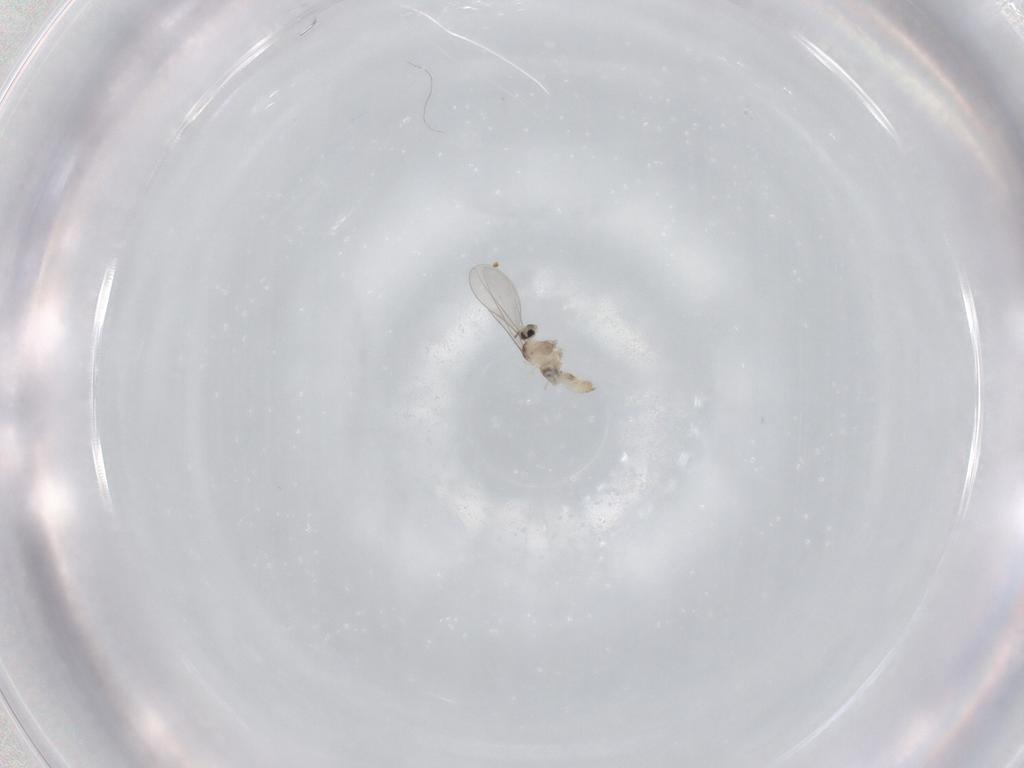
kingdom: Animalia
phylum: Arthropoda
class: Insecta
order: Diptera
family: Cecidomyiidae
